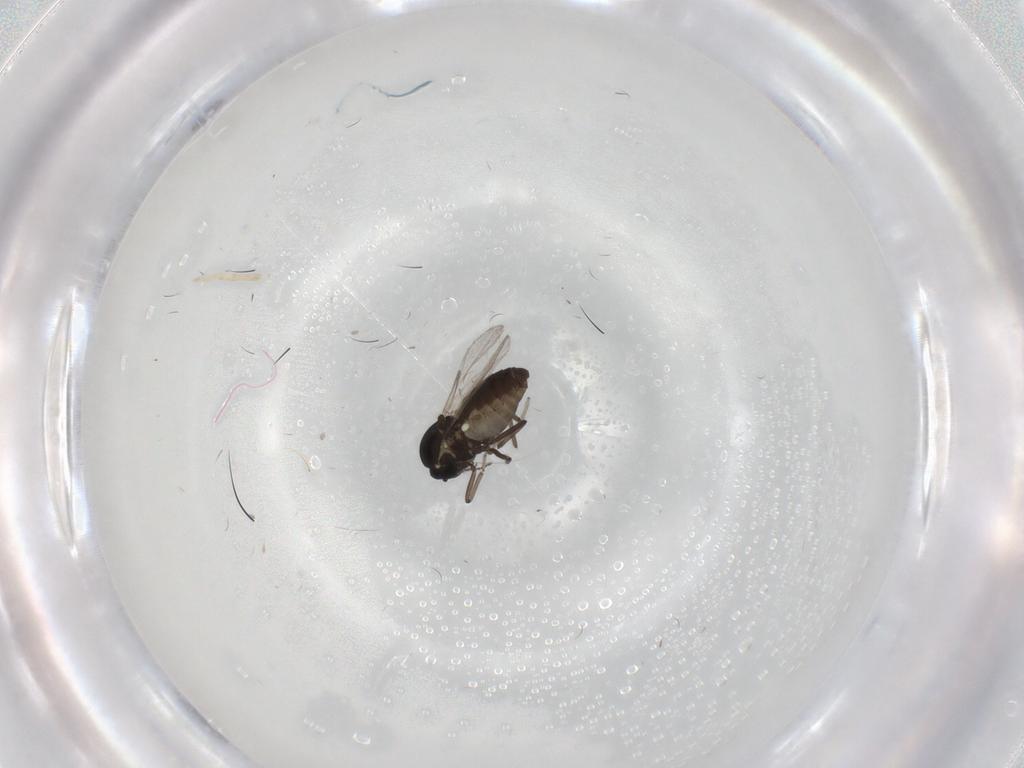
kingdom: Animalia
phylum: Arthropoda
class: Insecta
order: Diptera
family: Ceratopogonidae
